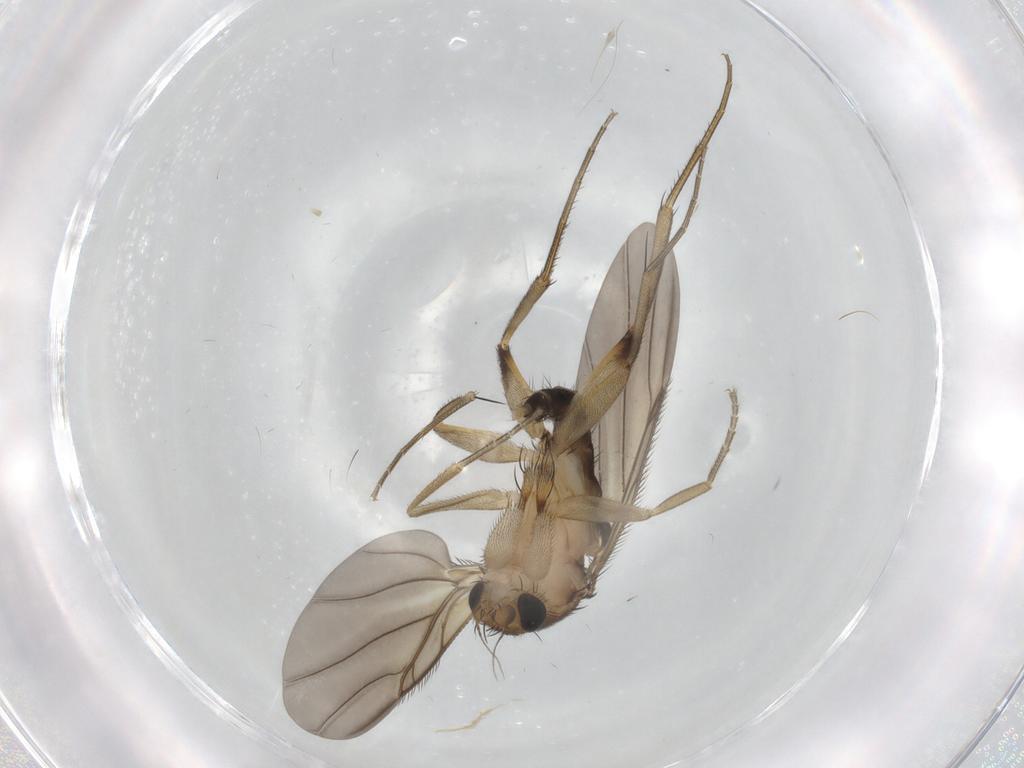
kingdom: Animalia
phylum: Arthropoda
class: Insecta
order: Diptera
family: Phoridae
